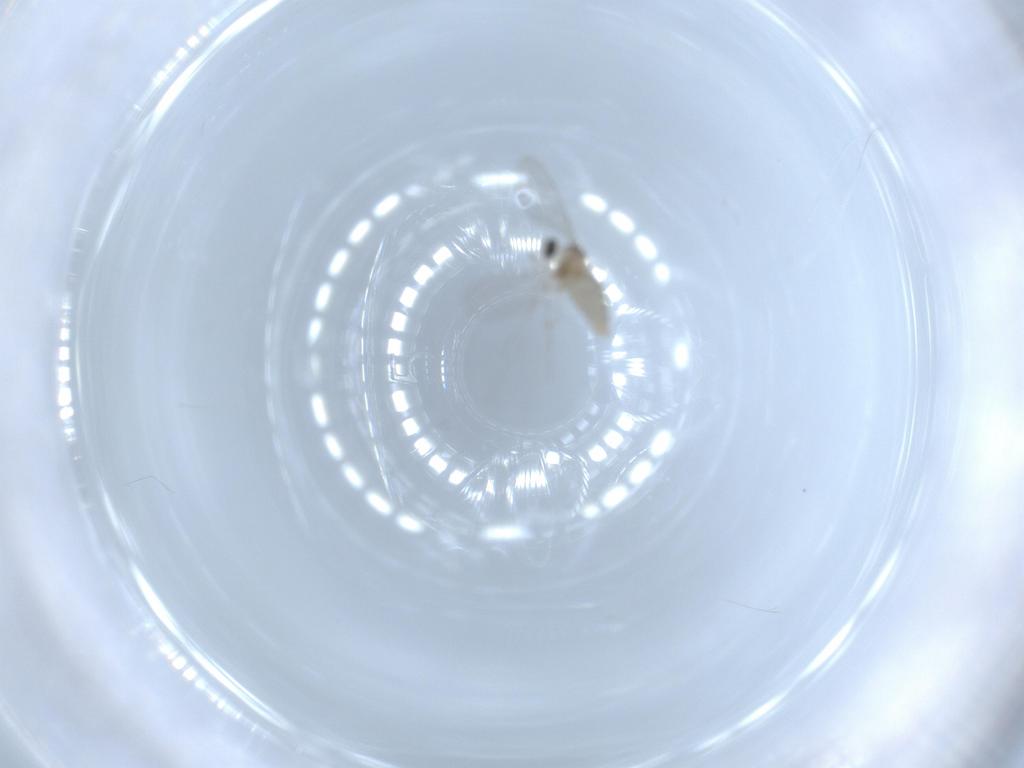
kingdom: Animalia
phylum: Arthropoda
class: Insecta
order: Diptera
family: Cecidomyiidae
